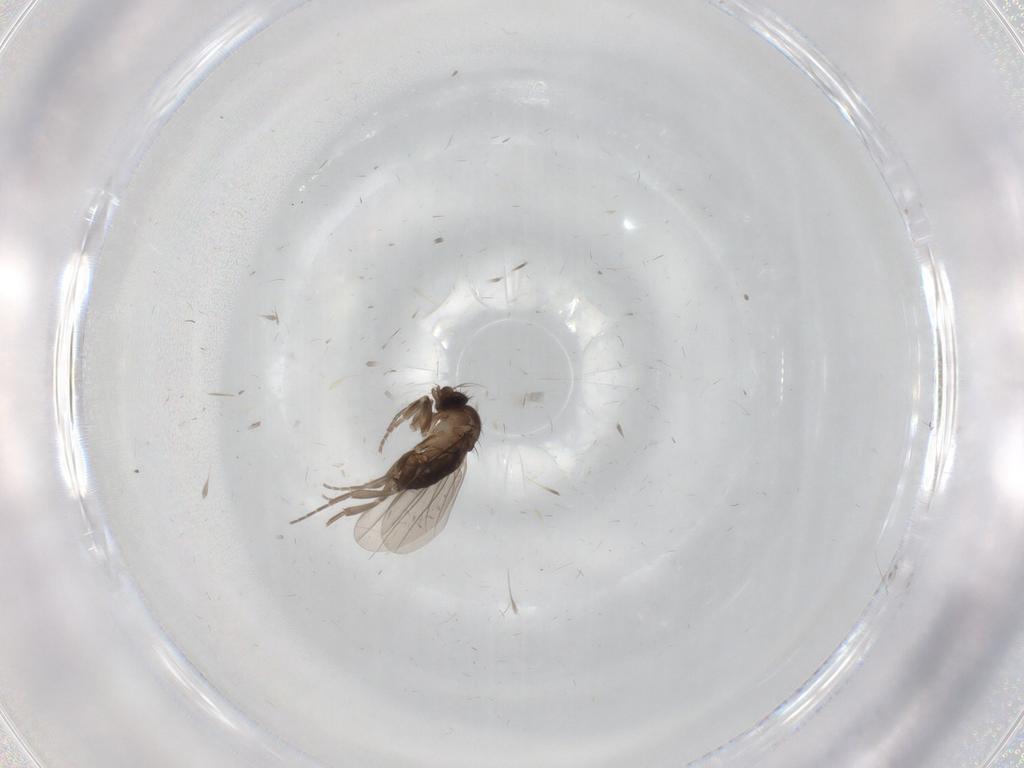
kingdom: Animalia
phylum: Arthropoda
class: Insecta
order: Diptera
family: Phoridae
